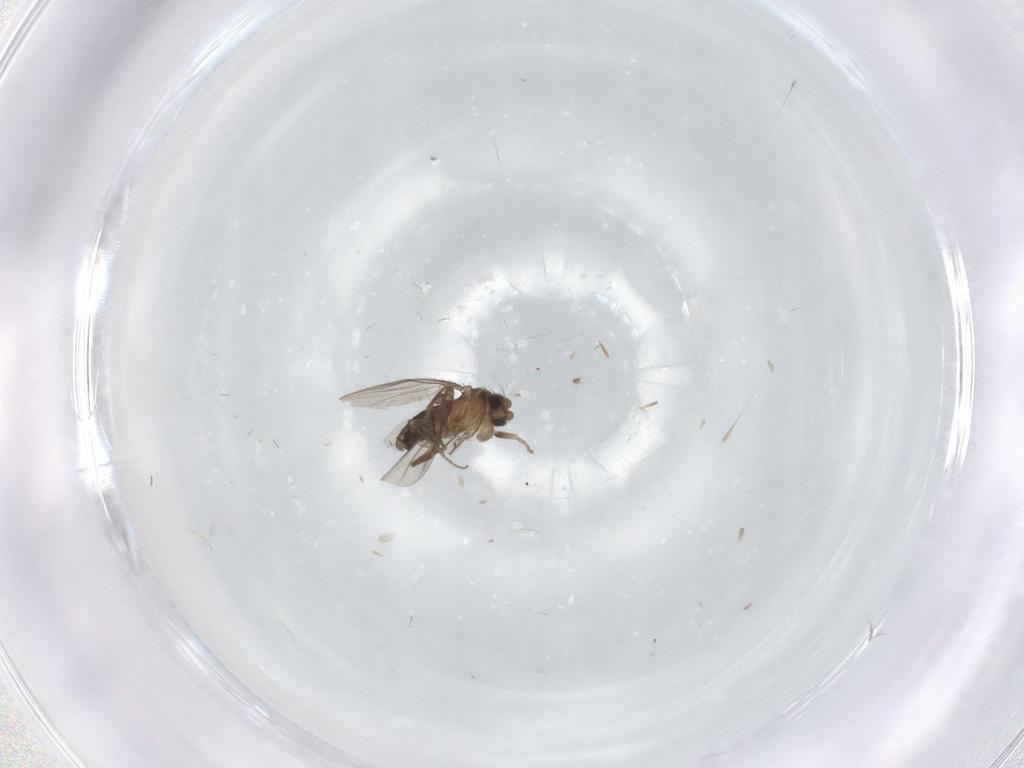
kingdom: Animalia
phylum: Arthropoda
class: Insecta
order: Diptera
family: Phoridae
